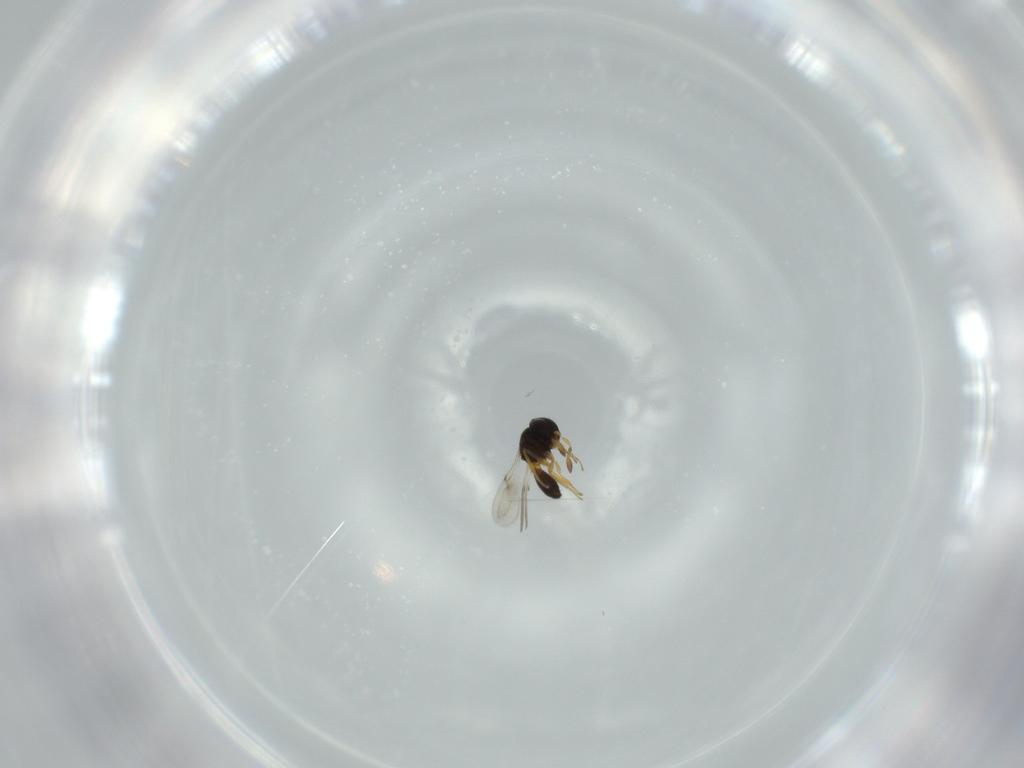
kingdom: Animalia
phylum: Arthropoda
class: Insecta
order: Hymenoptera
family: Scelionidae
